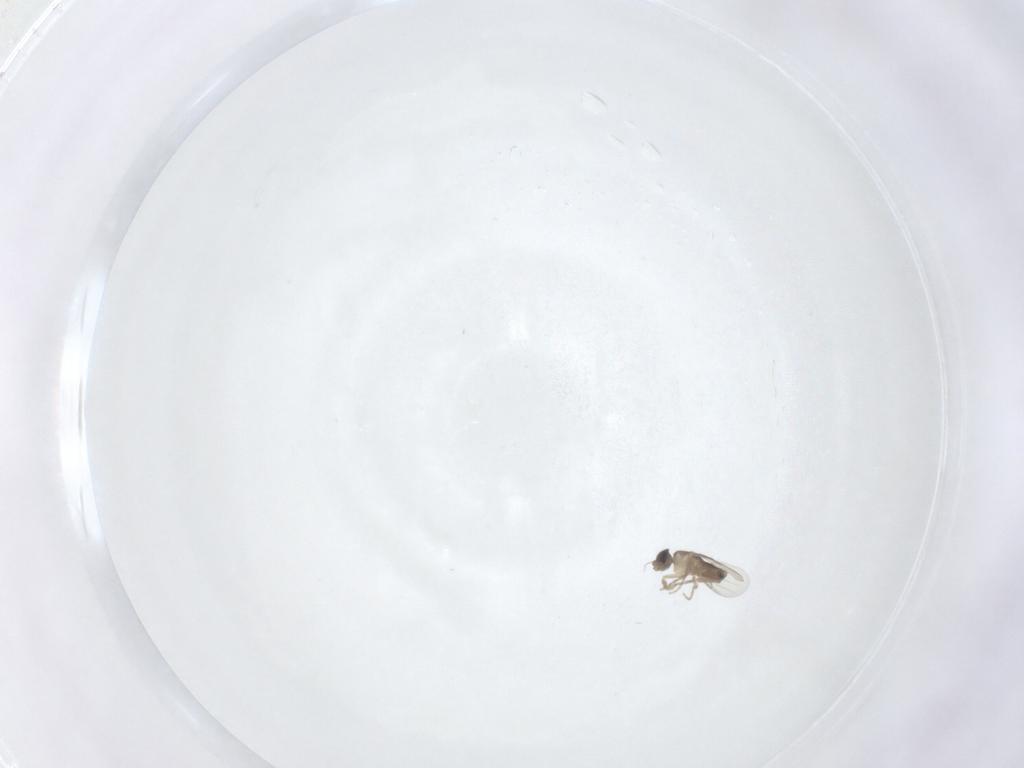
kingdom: Animalia
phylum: Arthropoda
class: Insecta
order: Diptera
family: Phoridae
